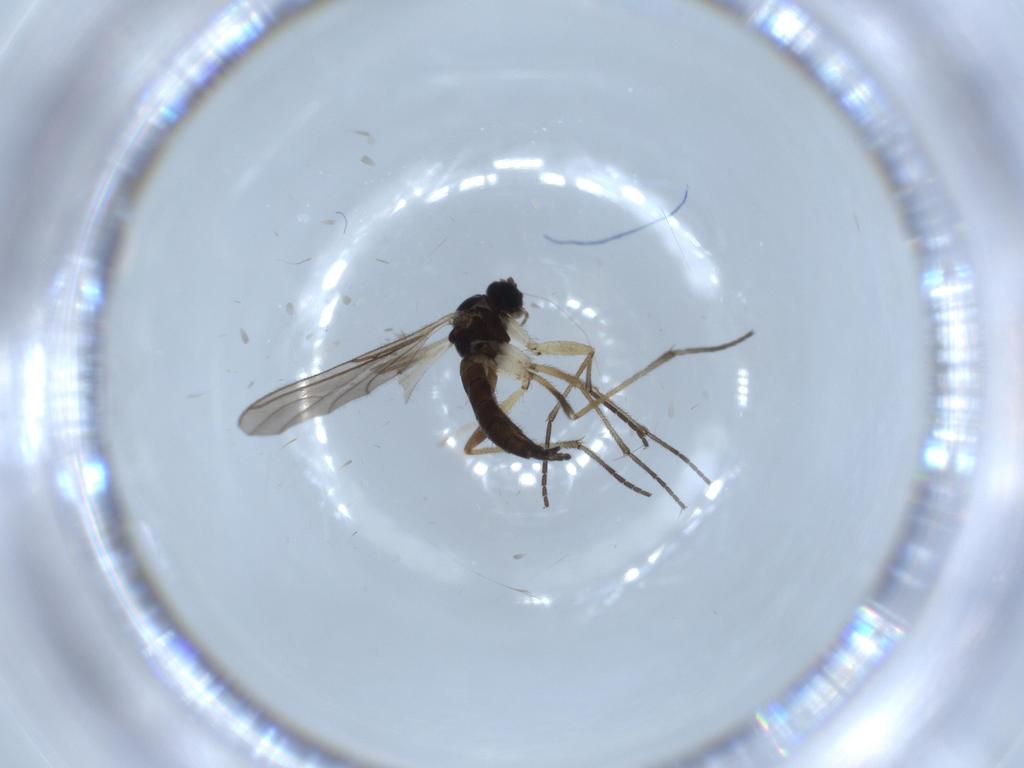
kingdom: Animalia
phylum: Arthropoda
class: Insecta
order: Diptera
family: Sciaridae
